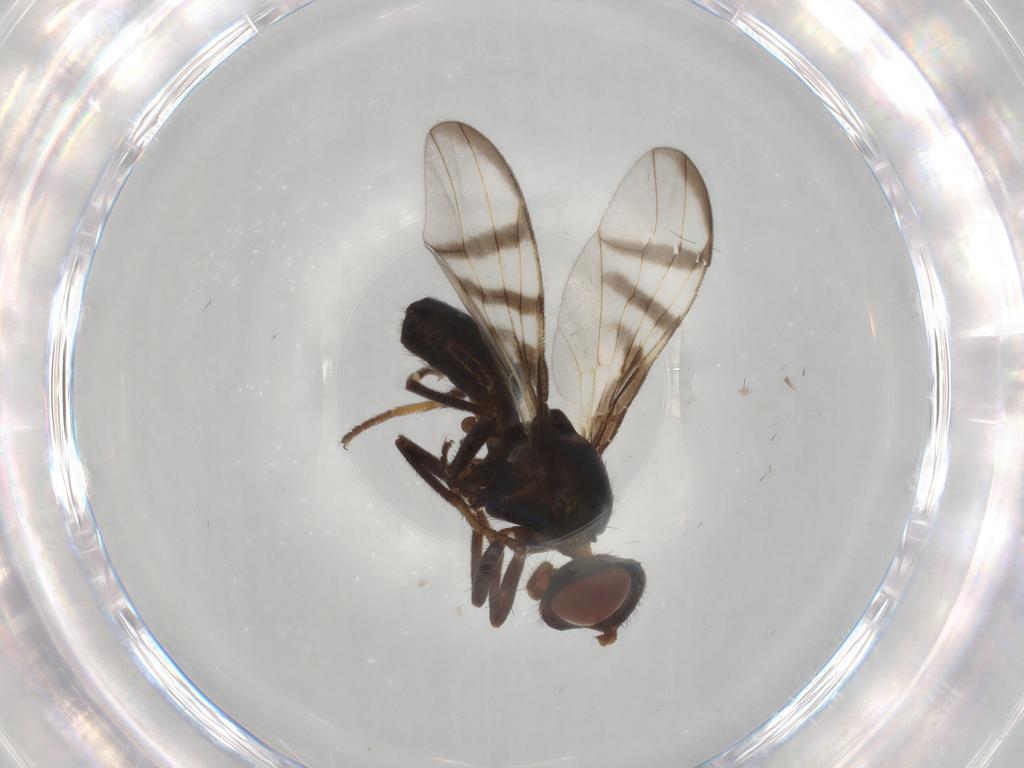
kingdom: Animalia
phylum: Arthropoda
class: Insecta
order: Diptera
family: Platystomatidae
